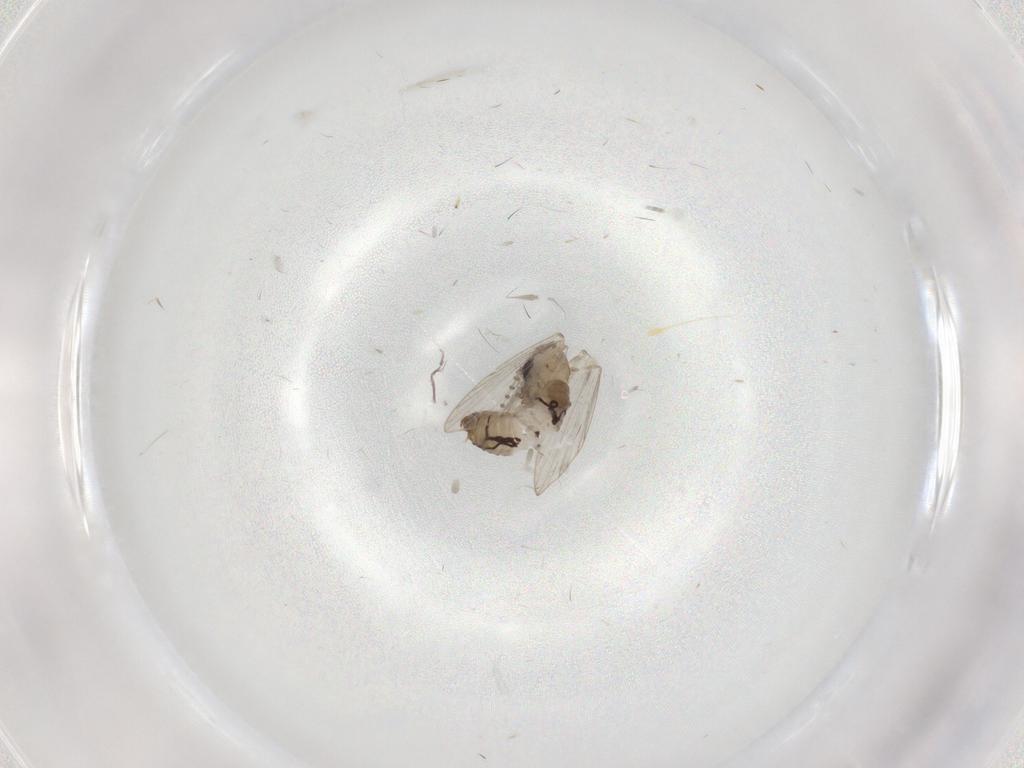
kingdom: Animalia
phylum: Arthropoda
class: Insecta
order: Diptera
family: Psychodidae
